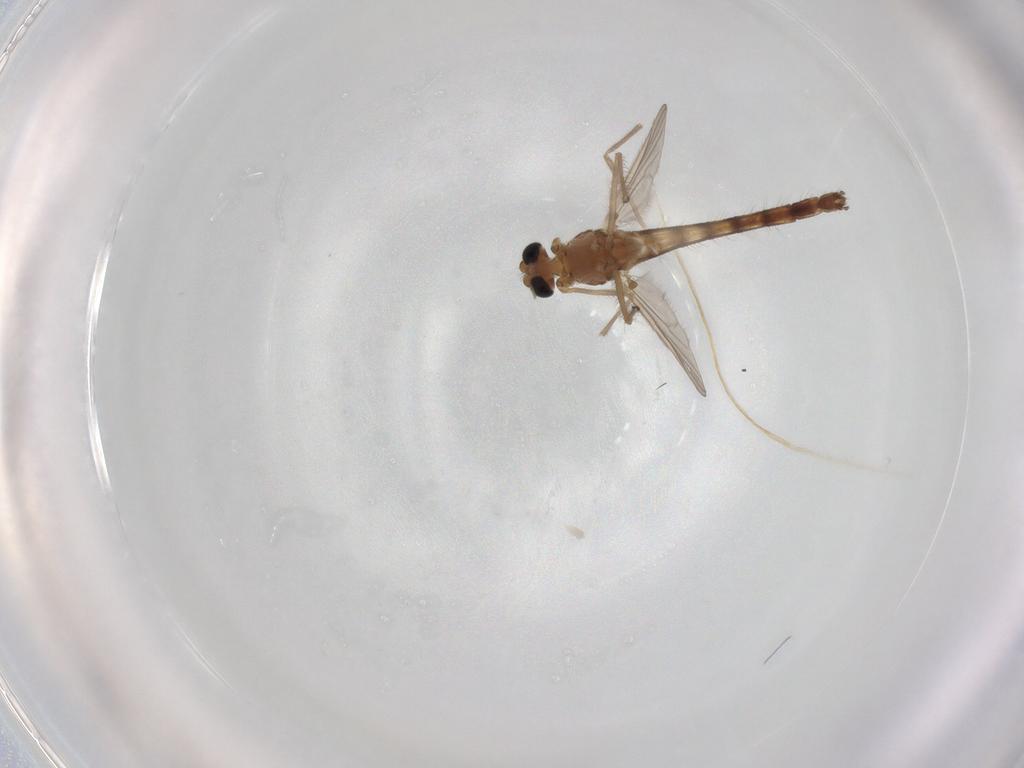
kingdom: Animalia
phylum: Arthropoda
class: Insecta
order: Diptera
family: Chironomidae
